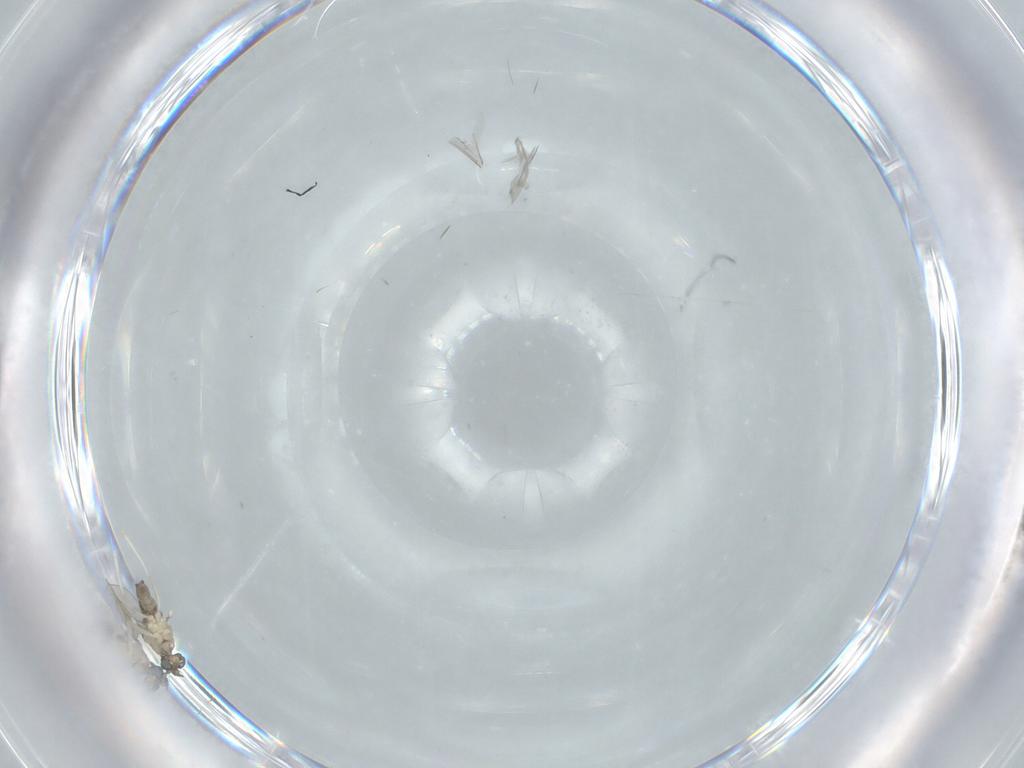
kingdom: Animalia
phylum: Arthropoda
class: Insecta
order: Diptera
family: Cecidomyiidae
